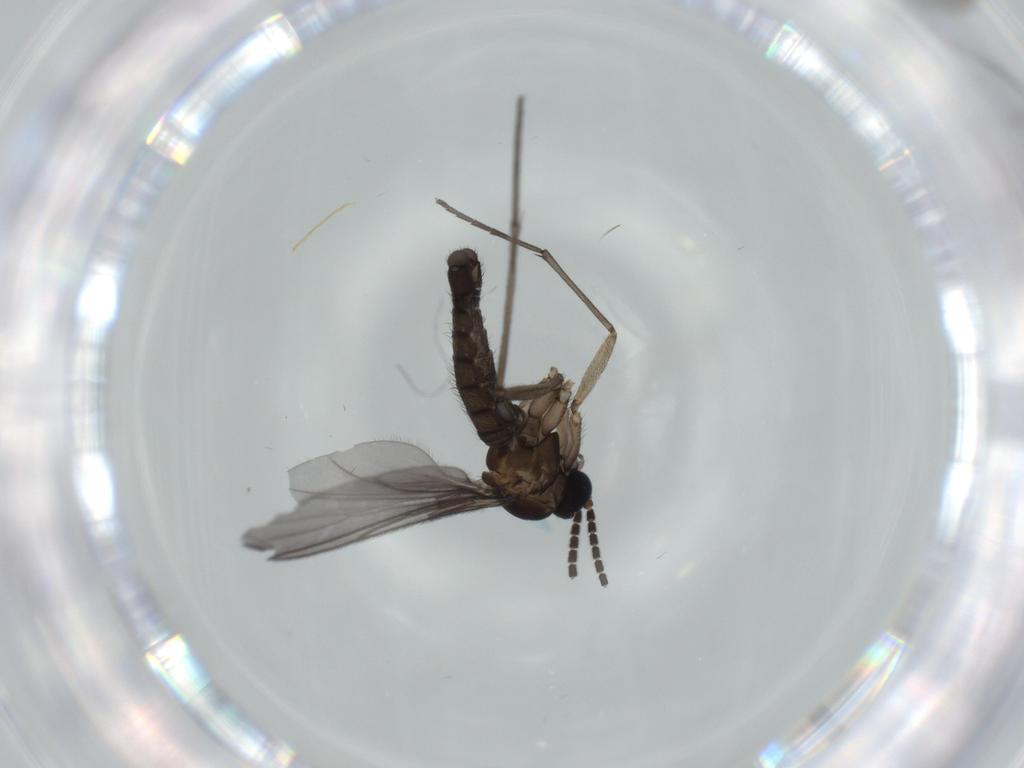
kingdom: Animalia
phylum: Arthropoda
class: Insecta
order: Diptera
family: Sciaridae
